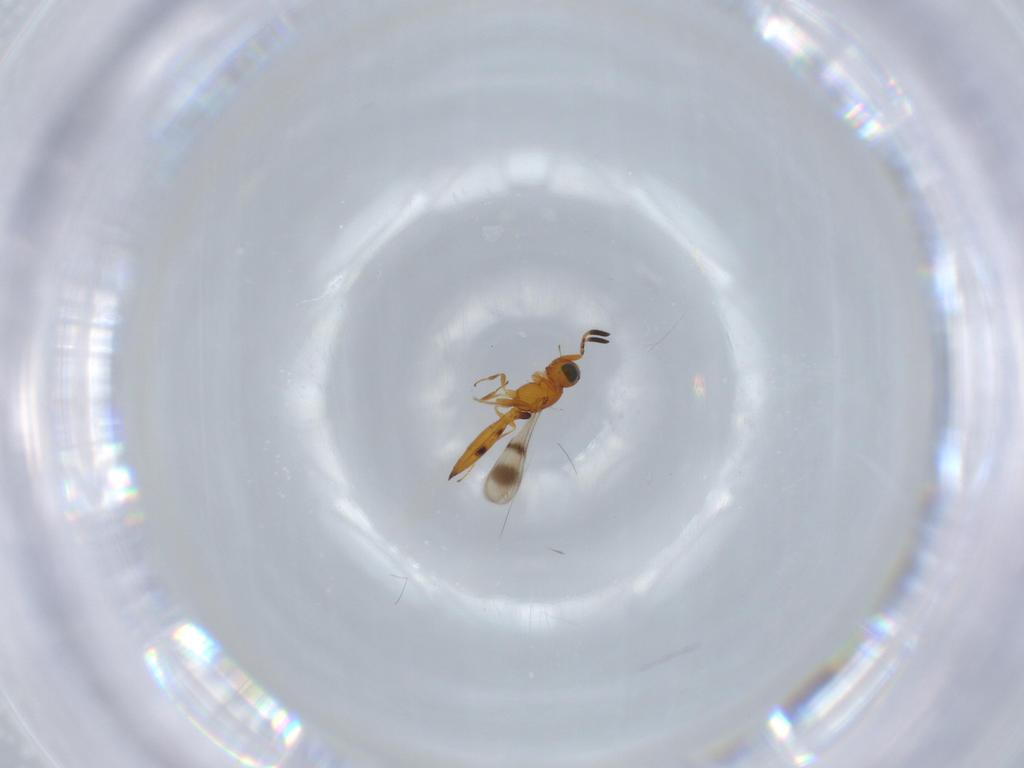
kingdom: Animalia
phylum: Arthropoda
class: Insecta
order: Hymenoptera
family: Scelionidae
